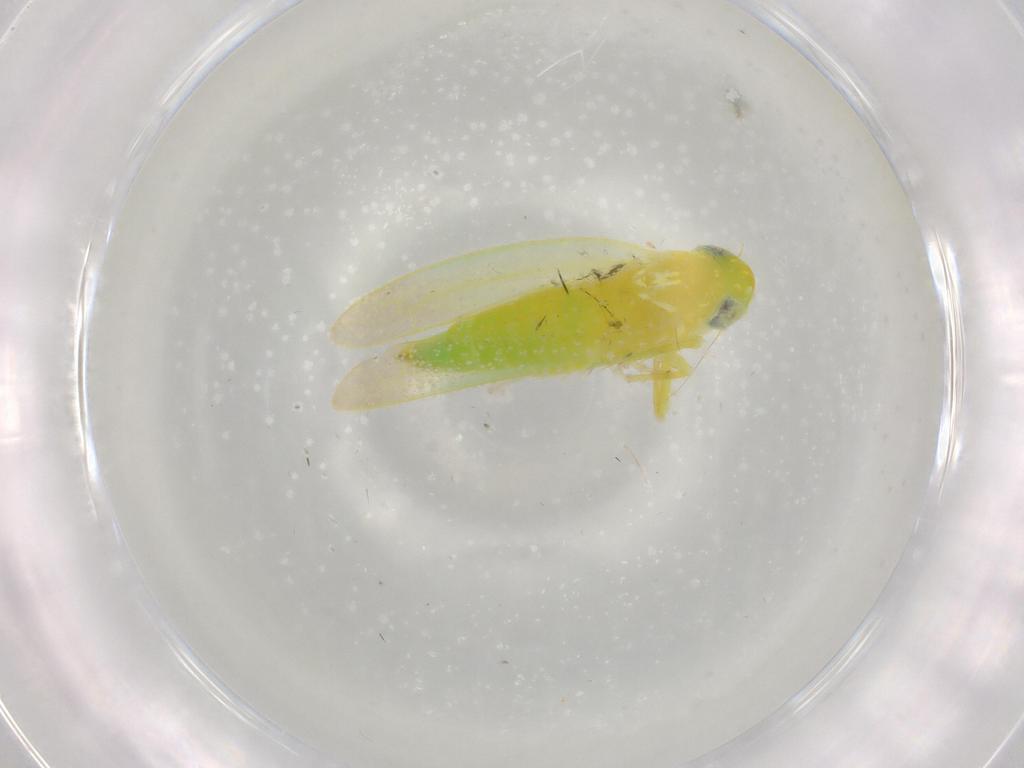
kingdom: Animalia
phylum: Arthropoda
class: Insecta
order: Hemiptera
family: Cicadellidae
